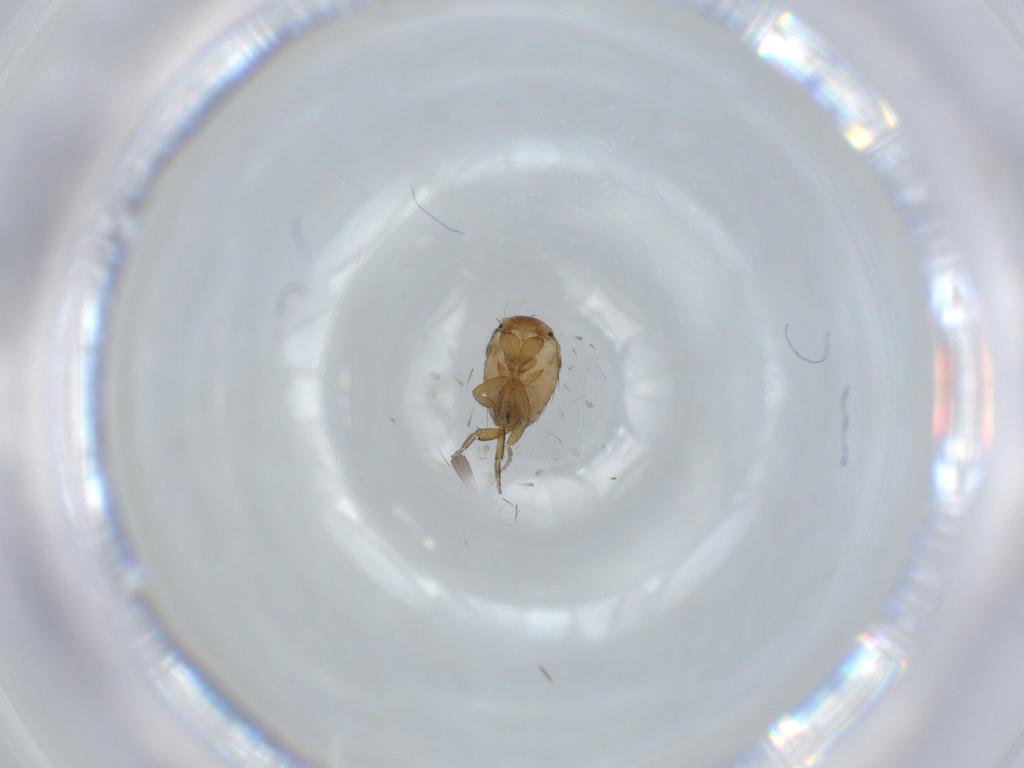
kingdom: Animalia
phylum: Arthropoda
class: Insecta
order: Diptera
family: Phoridae
